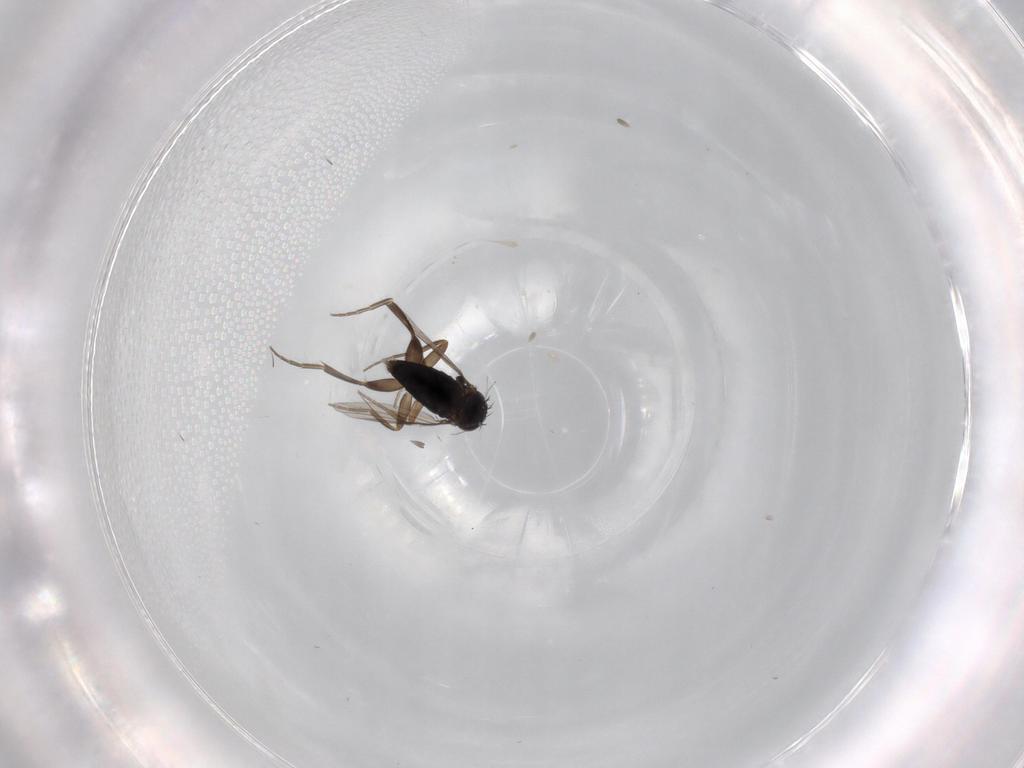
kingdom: Animalia
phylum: Arthropoda
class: Insecta
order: Diptera
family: Phoridae
